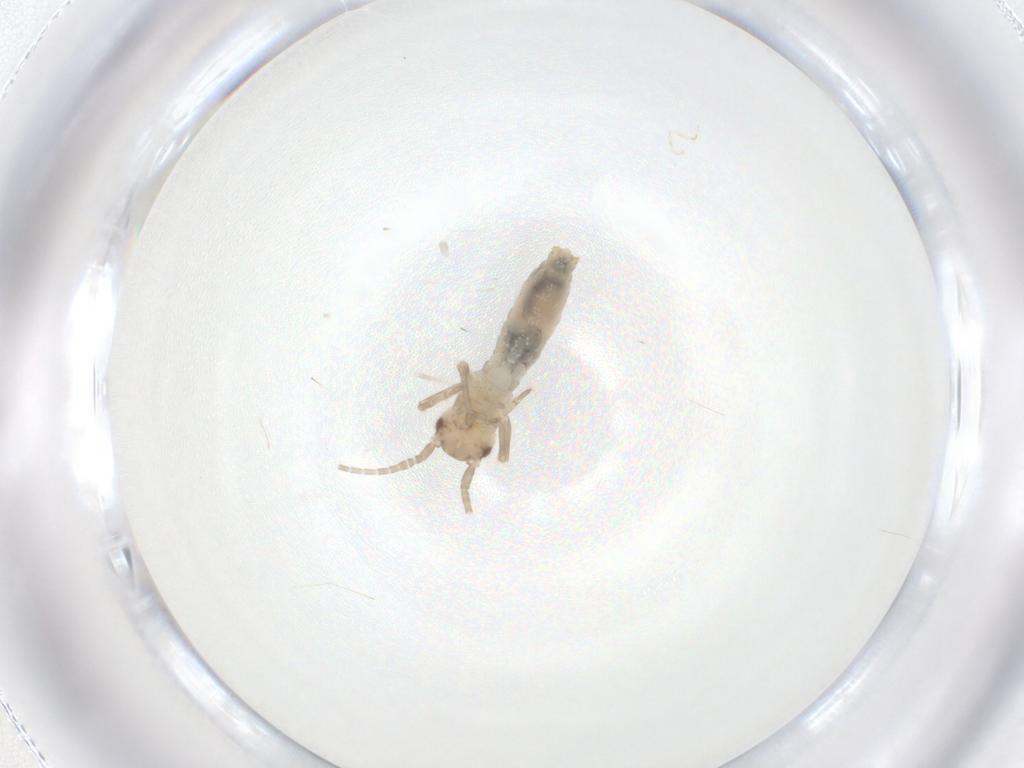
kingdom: Animalia
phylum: Arthropoda
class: Insecta
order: Orthoptera
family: Gryllidae
